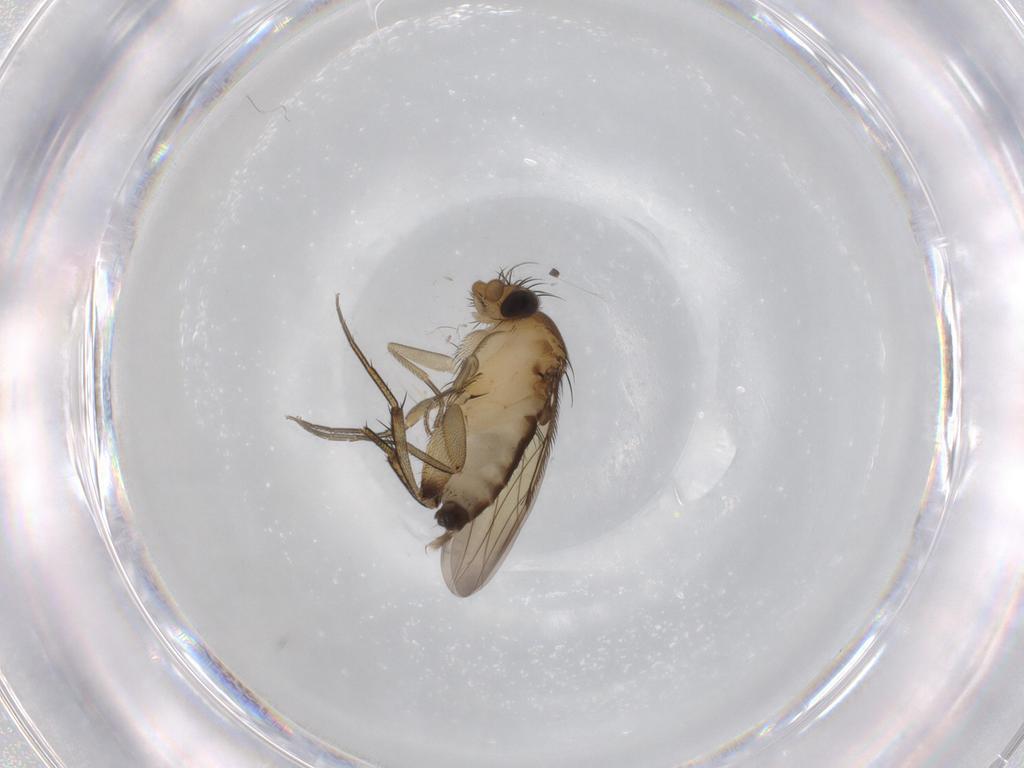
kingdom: Animalia
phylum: Arthropoda
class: Insecta
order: Diptera
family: Phoridae
